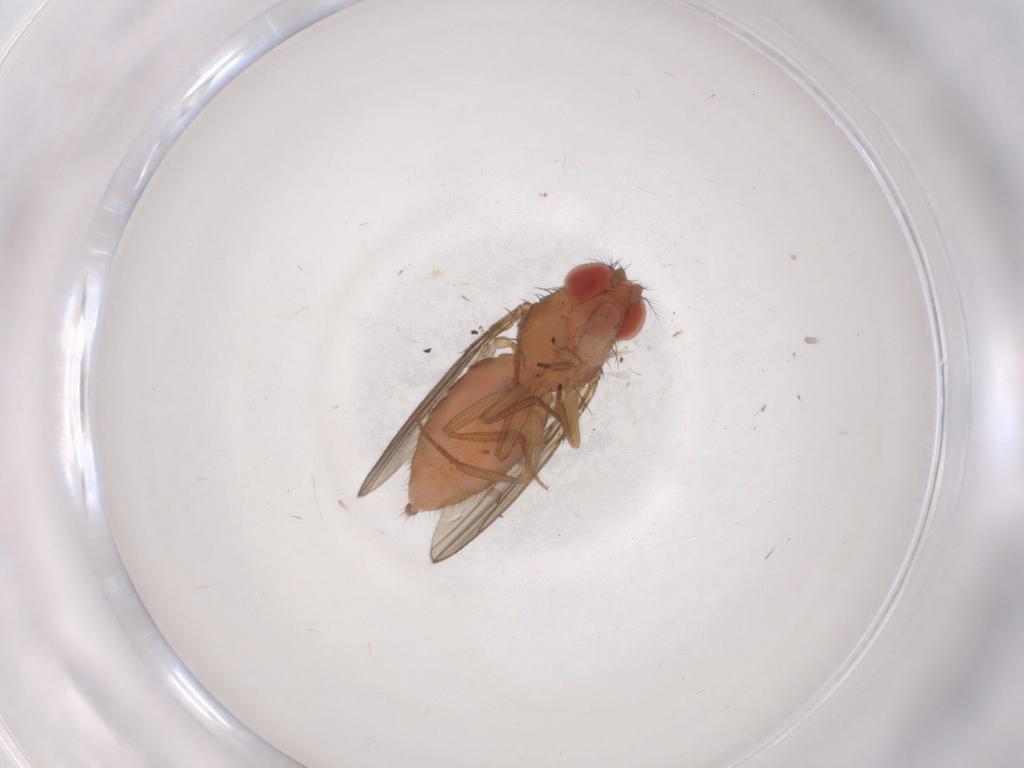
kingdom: Animalia
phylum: Arthropoda
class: Insecta
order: Diptera
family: Drosophilidae
